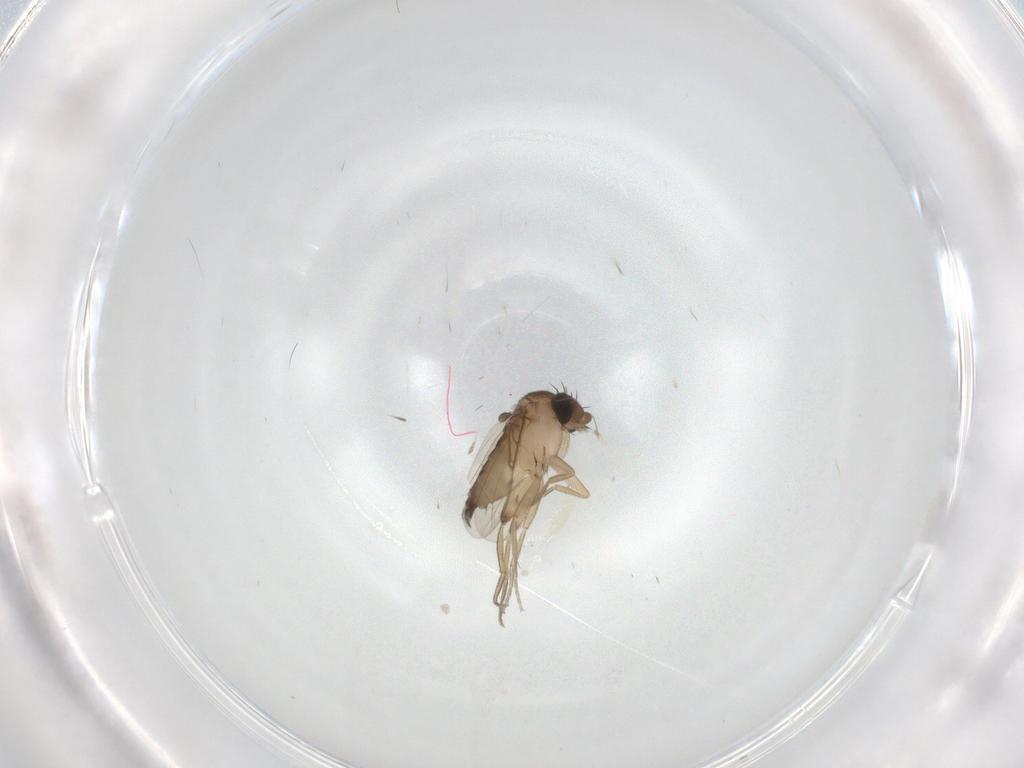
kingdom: Animalia
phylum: Arthropoda
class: Insecta
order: Diptera
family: Phoridae
